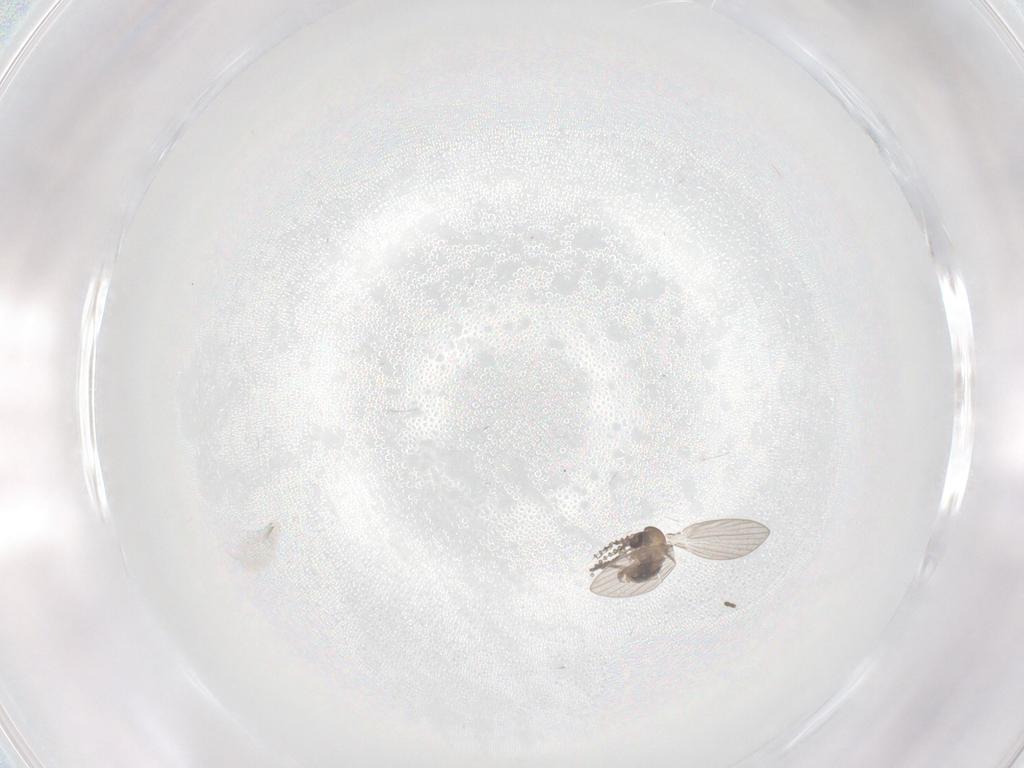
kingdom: Animalia
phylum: Arthropoda
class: Insecta
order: Diptera
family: Psychodidae
